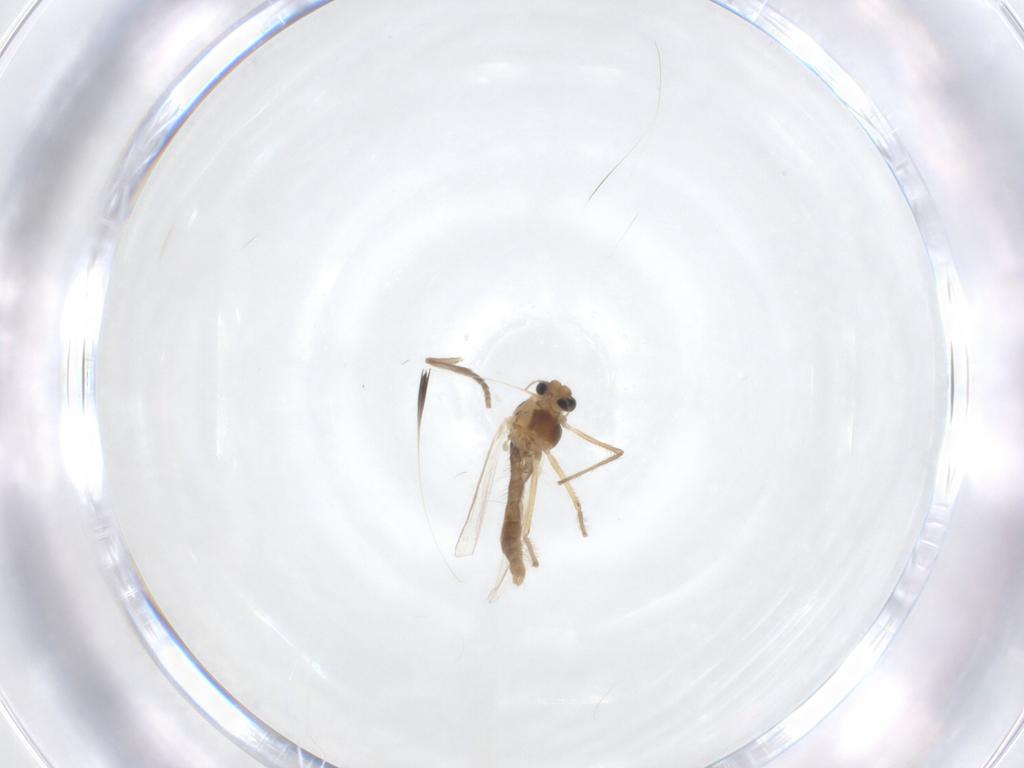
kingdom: Animalia
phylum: Arthropoda
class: Insecta
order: Diptera
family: Chironomidae
